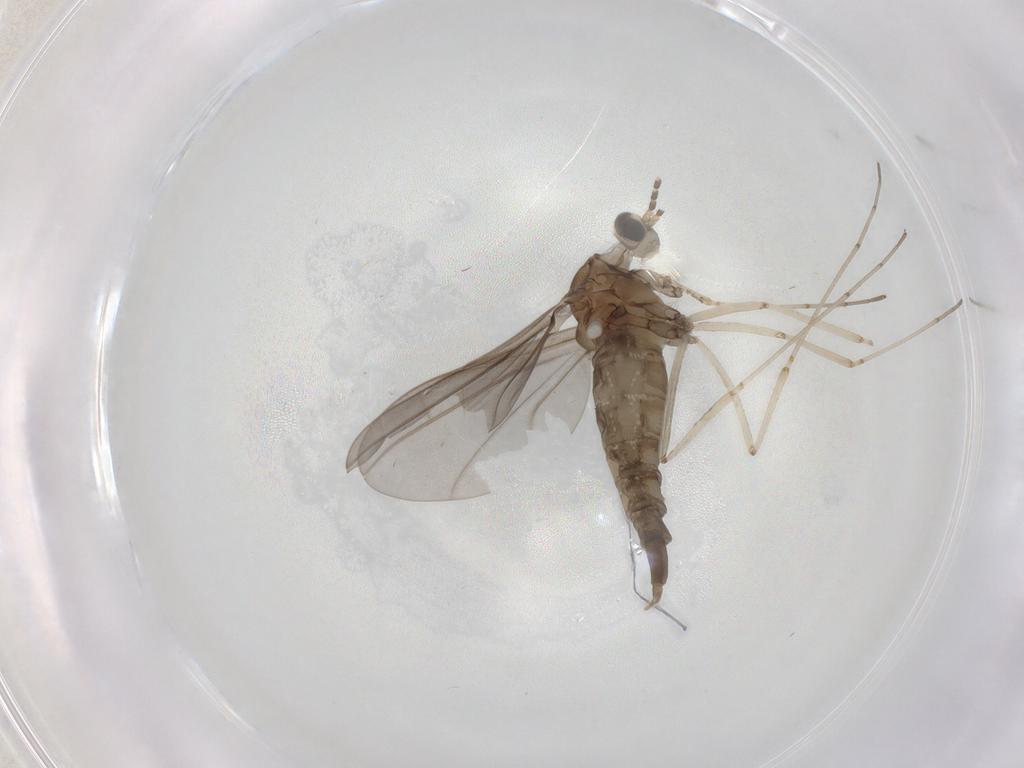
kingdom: Animalia
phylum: Arthropoda
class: Insecta
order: Diptera
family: Cecidomyiidae
